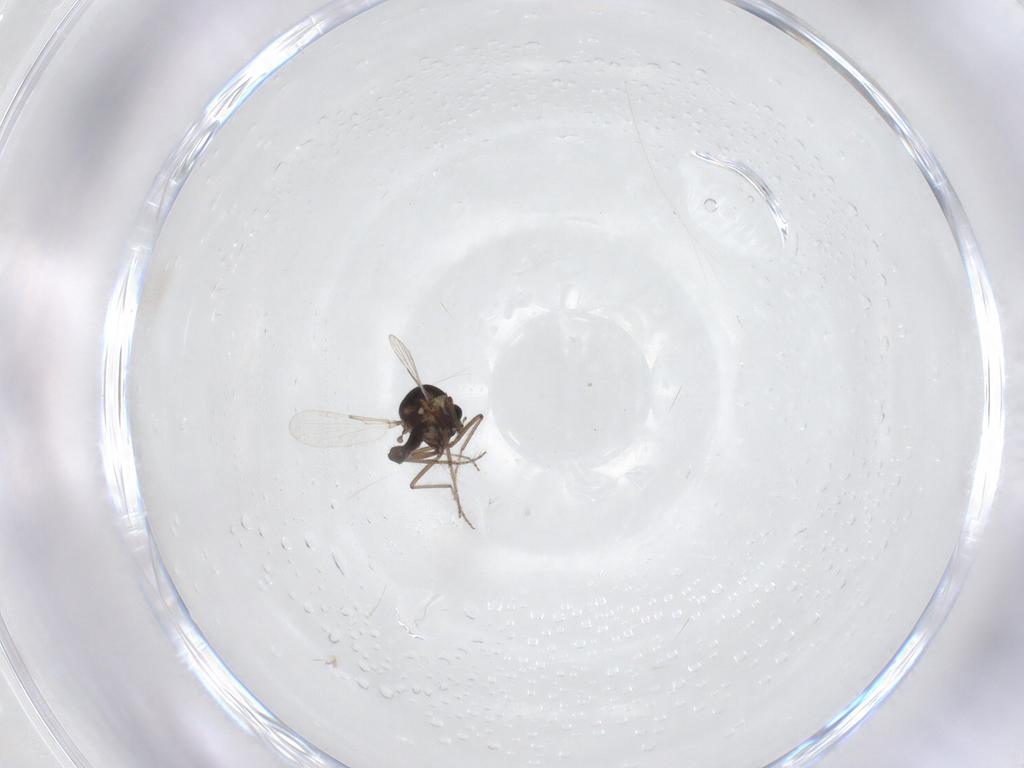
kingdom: Animalia
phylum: Arthropoda
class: Insecta
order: Diptera
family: Ceratopogonidae
